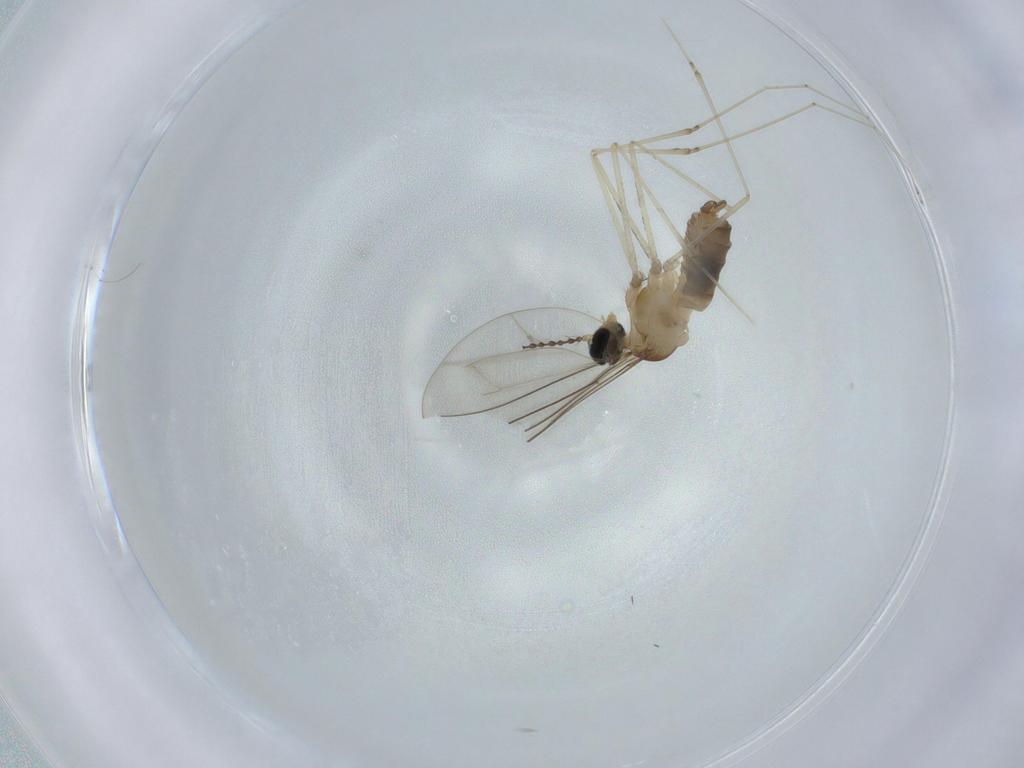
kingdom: Animalia
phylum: Arthropoda
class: Insecta
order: Diptera
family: Psychodidae
